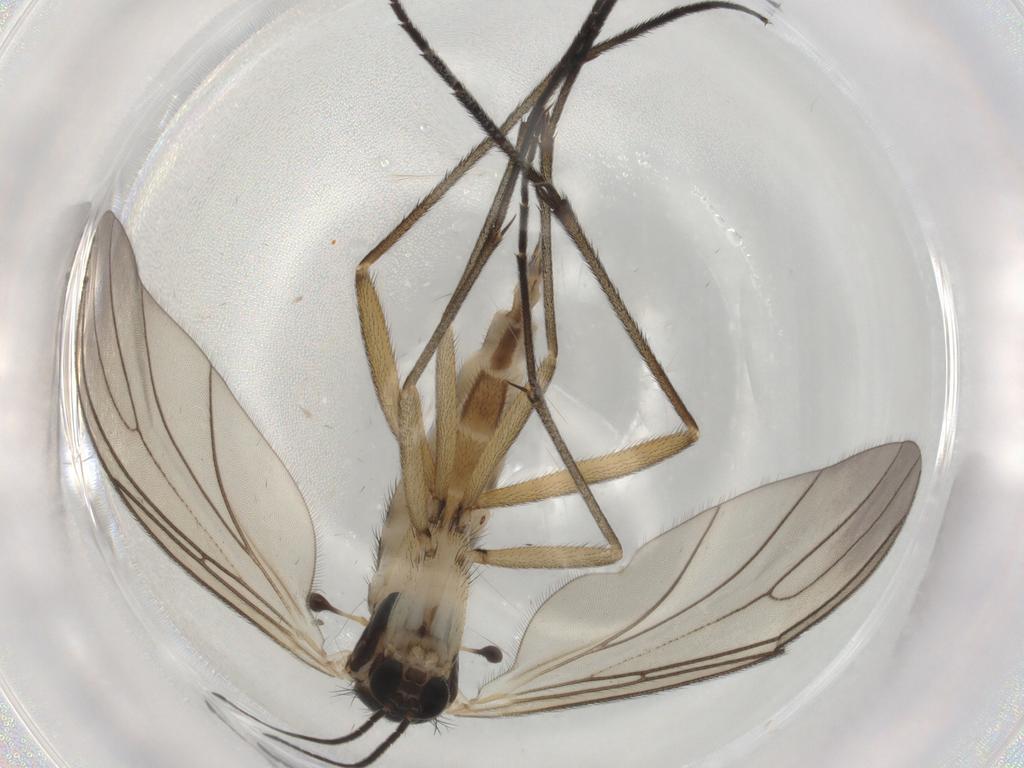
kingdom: Animalia
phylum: Arthropoda
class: Insecta
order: Diptera
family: Sciaridae
